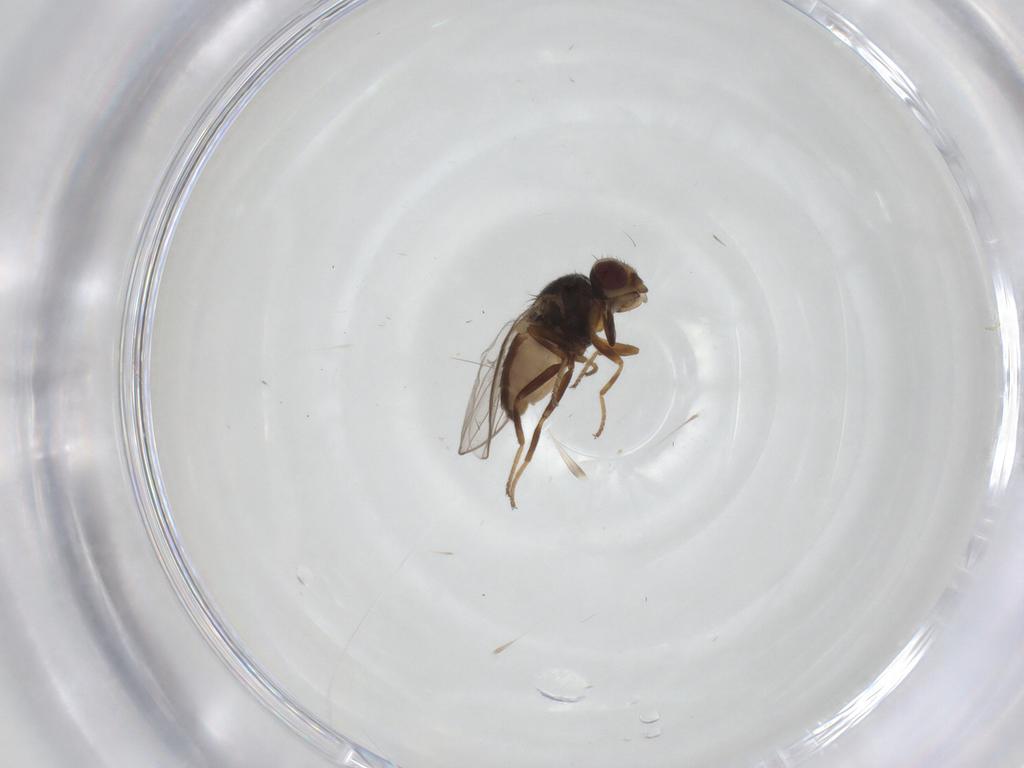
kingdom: Animalia
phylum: Arthropoda
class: Insecta
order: Diptera
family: Chloropidae
